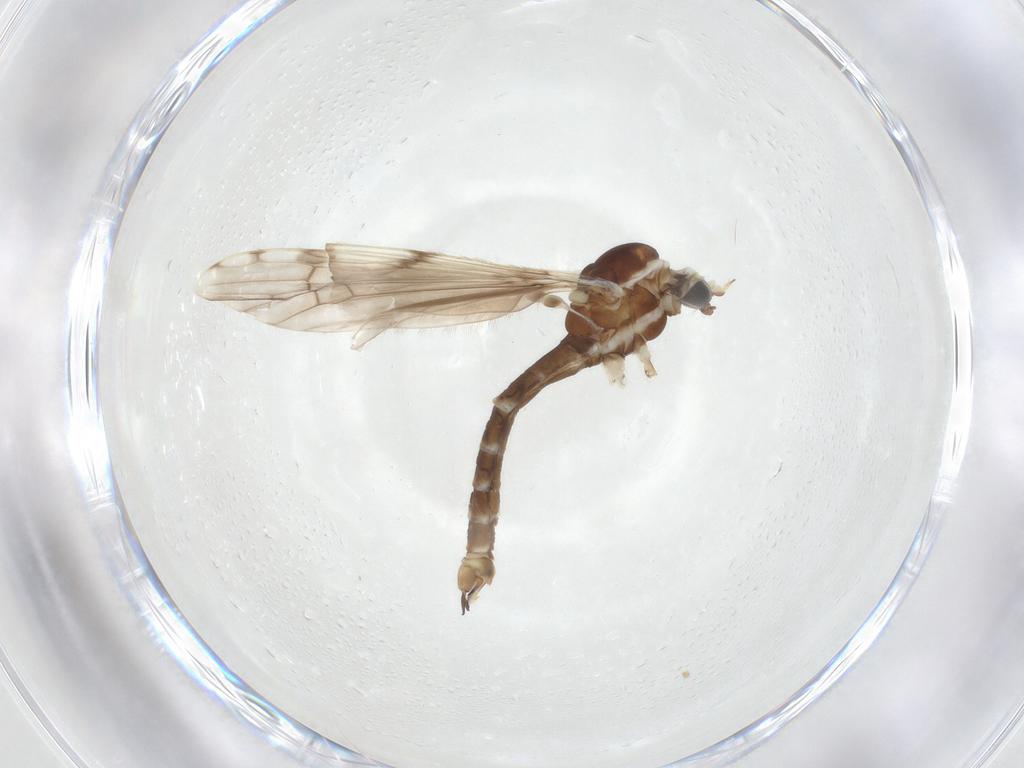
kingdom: Animalia
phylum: Arthropoda
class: Insecta
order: Diptera
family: Limoniidae
